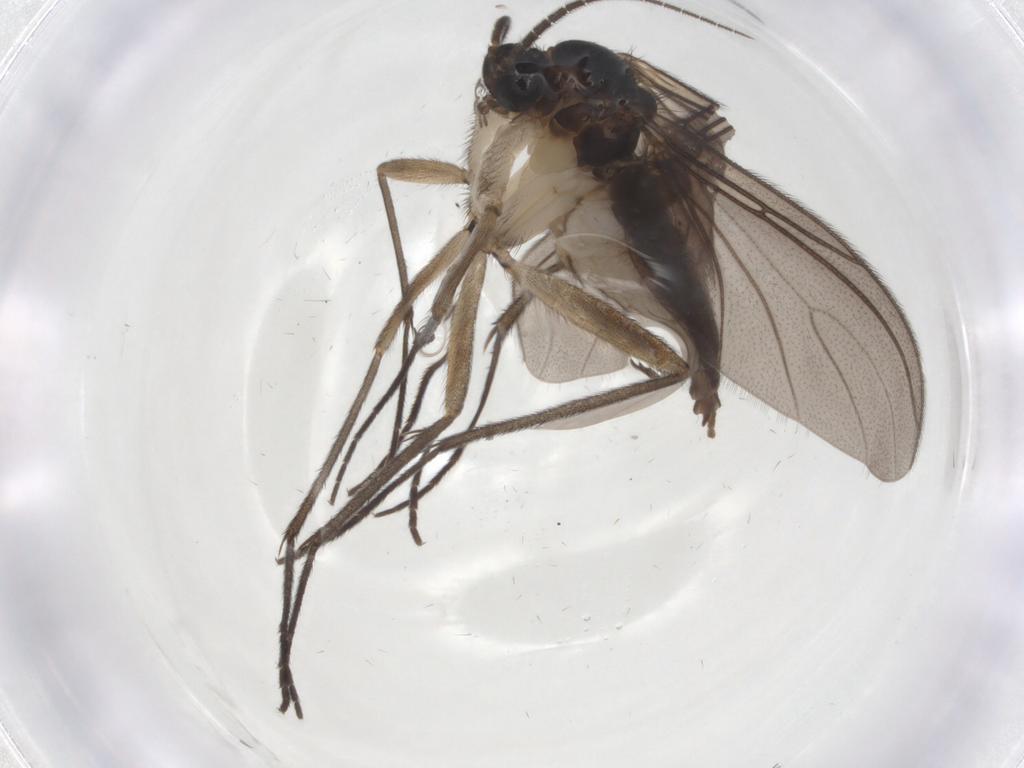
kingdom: Animalia
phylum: Arthropoda
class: Insecta
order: Diptera
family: Sciaridae
